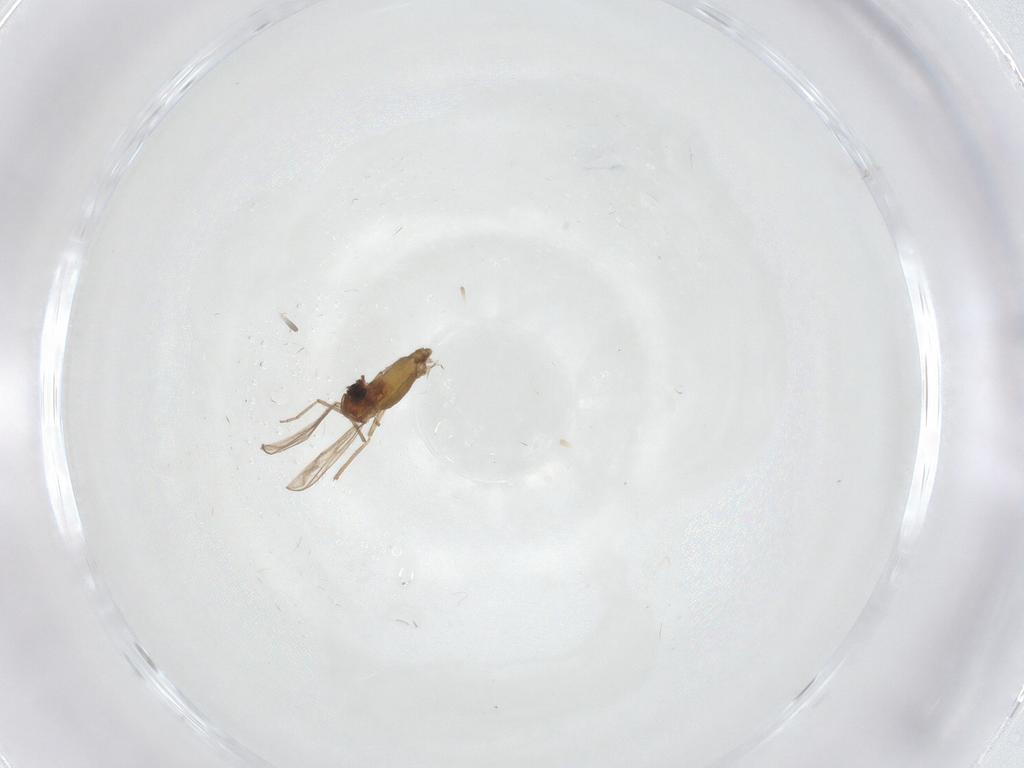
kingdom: Animalia
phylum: Arthropoda
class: Insecta
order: Diptera
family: Chironomidae
